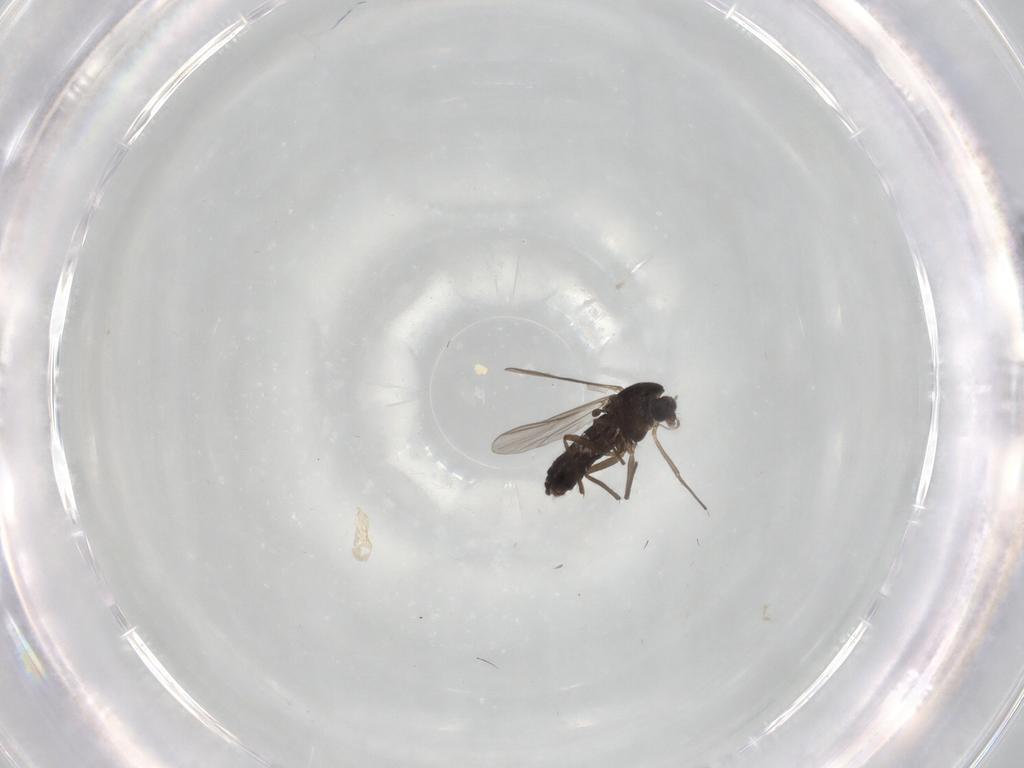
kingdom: Animalia
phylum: Arthropoda
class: Insecta
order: Diptera
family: Chironomidae
